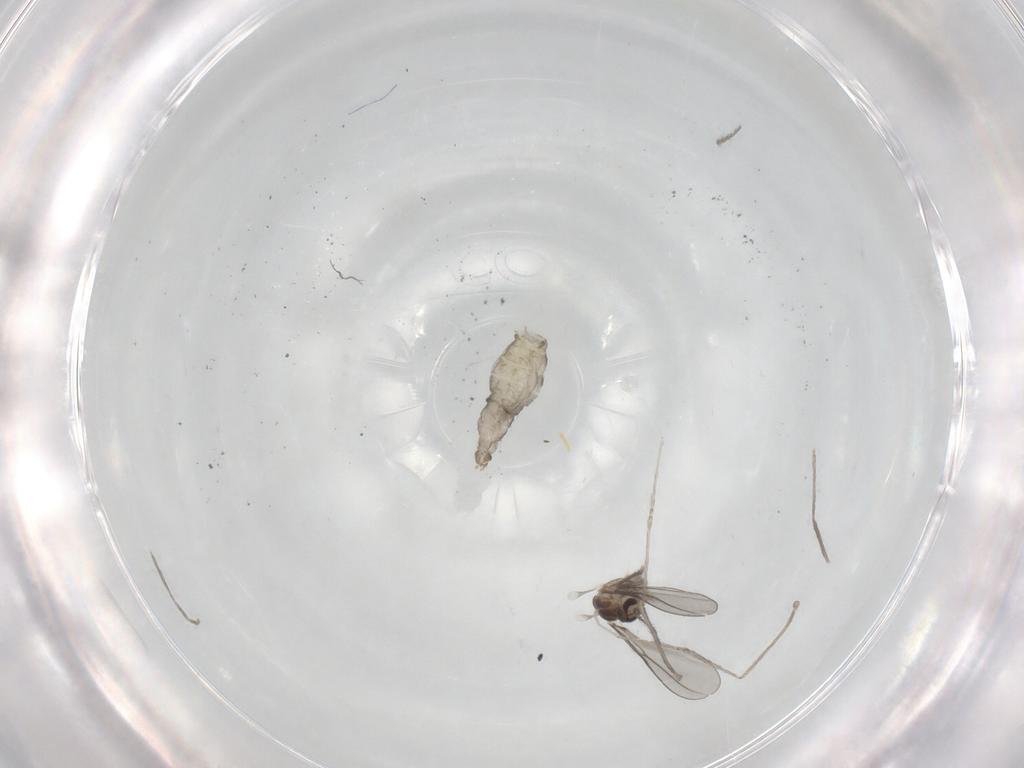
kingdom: Animalia
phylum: Arthropoda
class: Insecta
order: Diptera
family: Cecidomyiidae
